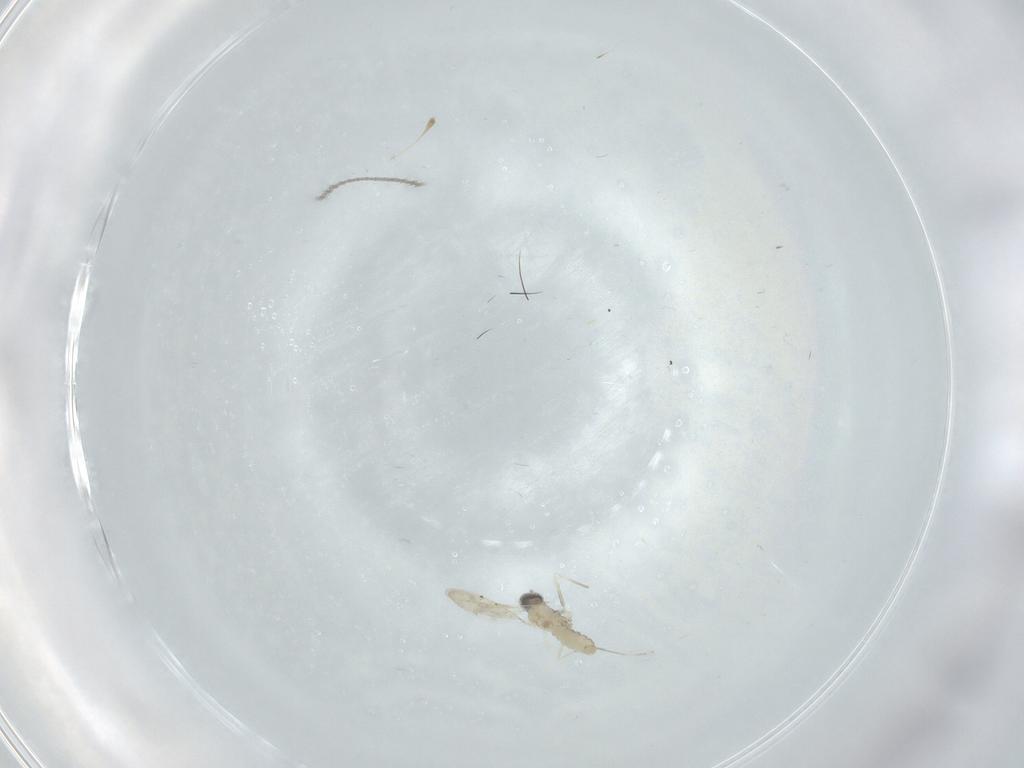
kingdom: Animalia
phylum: Arthropoda
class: Insecta
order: Diptera
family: Cecidomyiidae
